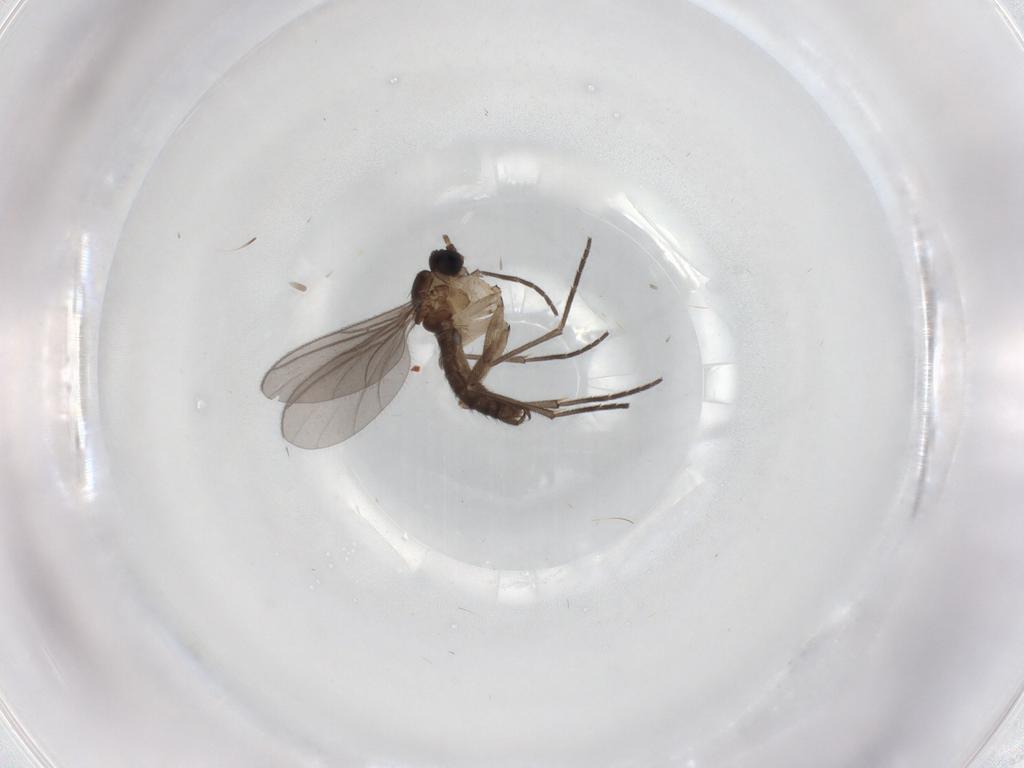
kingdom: Animalia
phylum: Arthropoda
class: Insecta
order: Diptera
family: Sciaridae
